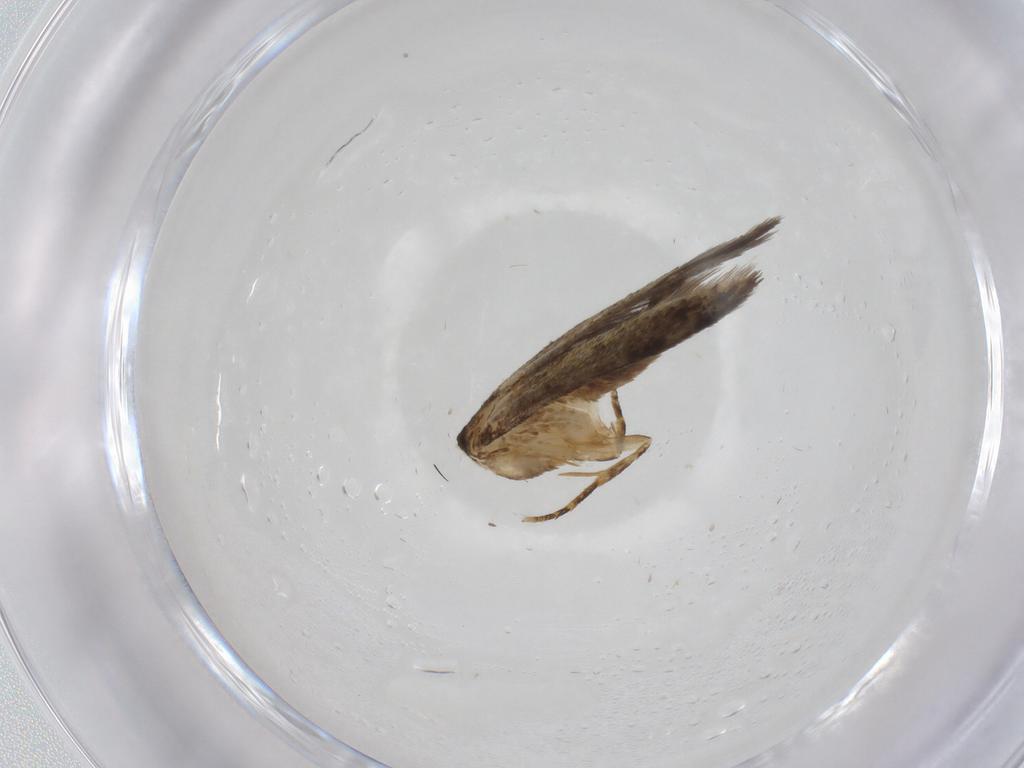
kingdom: Animalia
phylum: Arthropoda
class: Insecta
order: Lepidoptera
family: Tineidae
